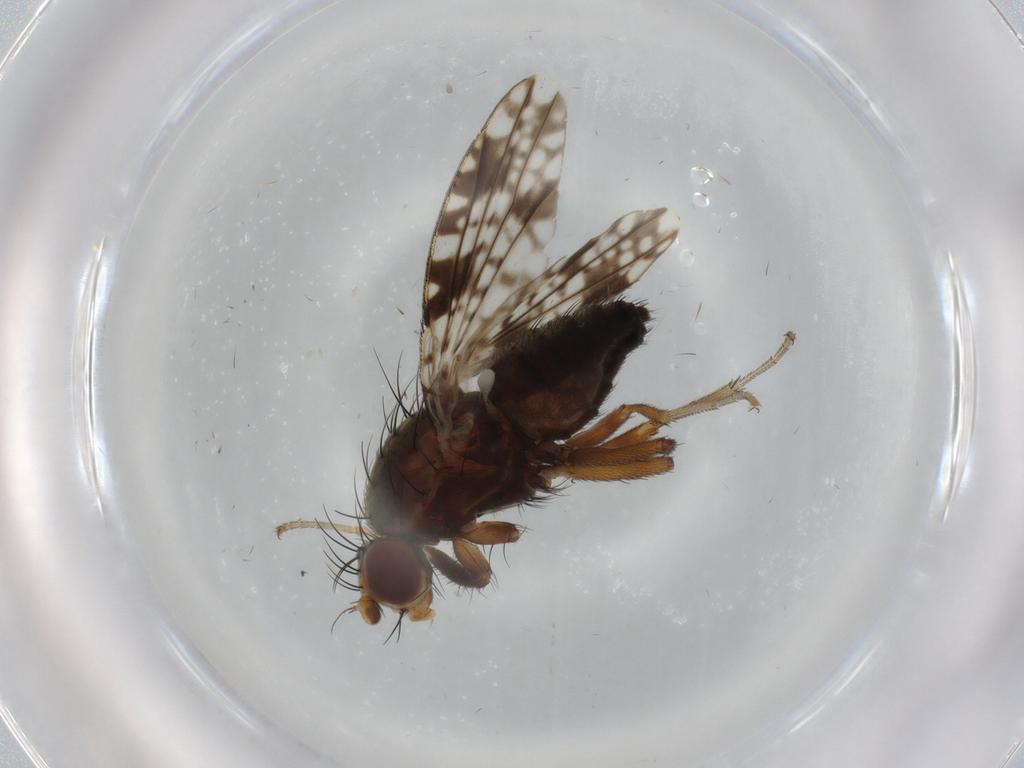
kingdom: Animalia
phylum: Arthropoda
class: Insecta
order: Diptera
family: Tephritidae
